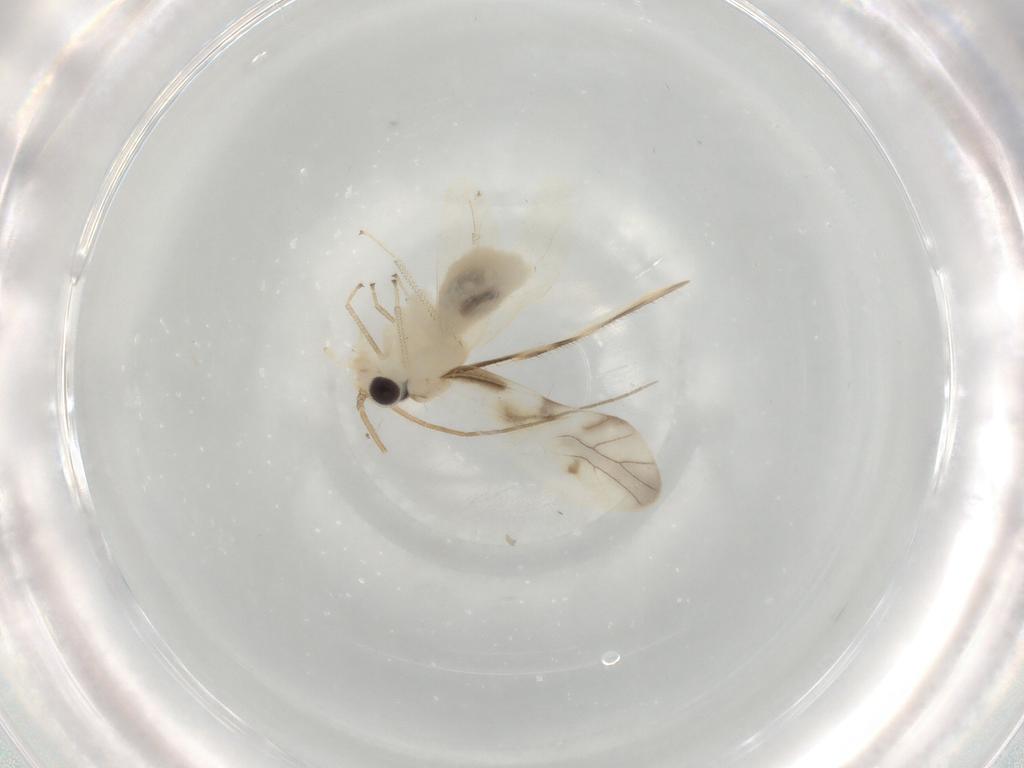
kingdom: Animalia
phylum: Arthropoda
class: Insecta
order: Psocodea
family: Caeciliusidae
